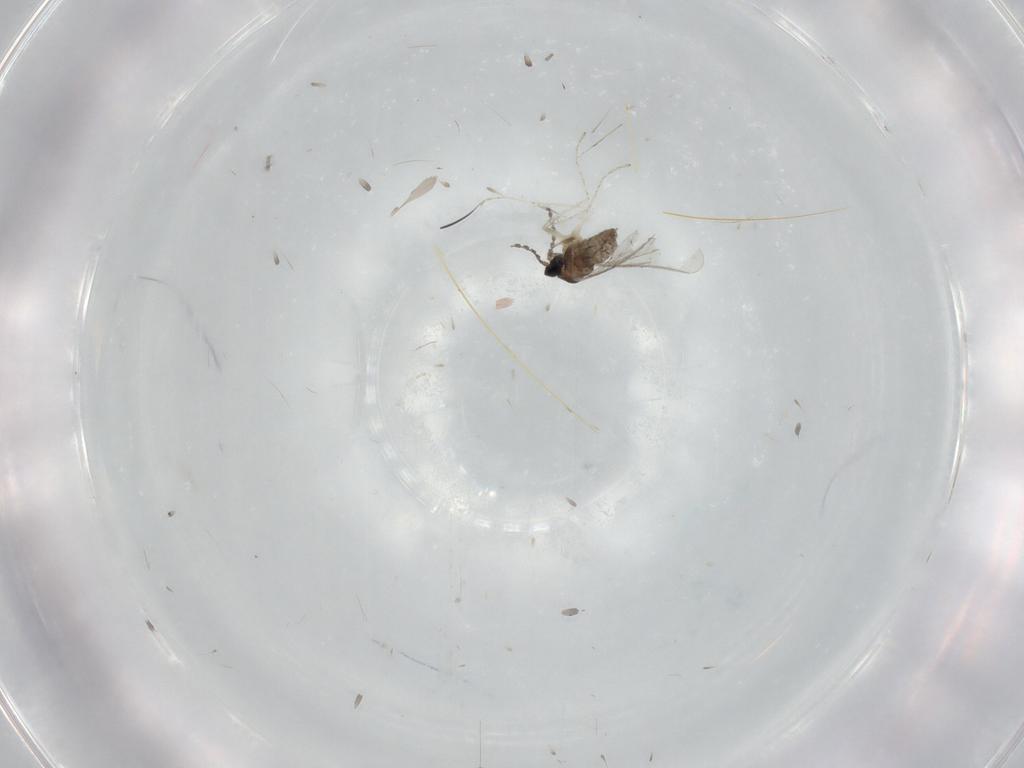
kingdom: Animalia
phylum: Arthropoda
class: Insecta
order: Diptera
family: Cecidomyiidae
